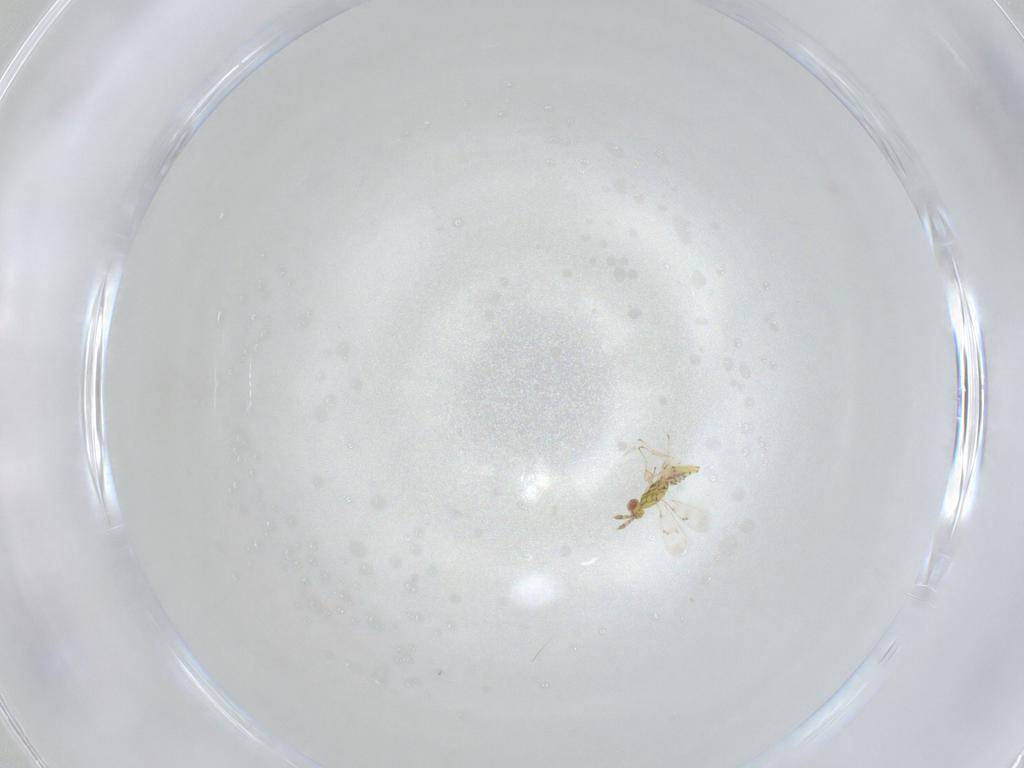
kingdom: Animalia
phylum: Arthropoda
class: Insecta
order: Hymenoptera
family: Eulophidae
